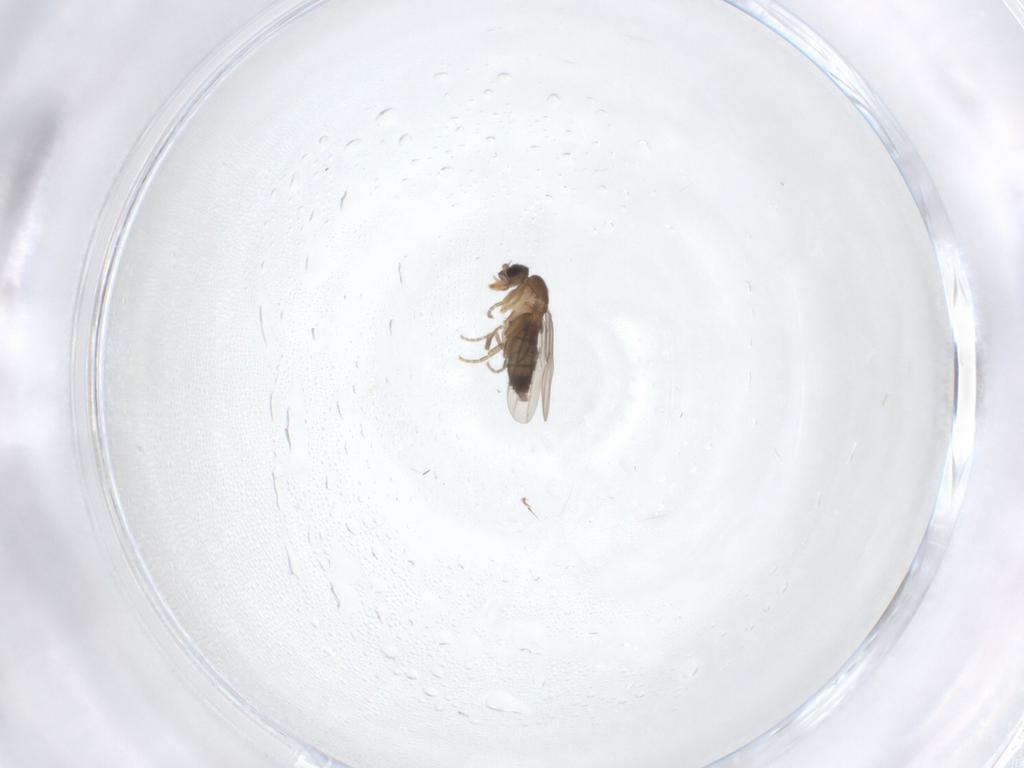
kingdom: Animalia
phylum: Arthropoda
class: Insecta
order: Diptera
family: Phoridae
